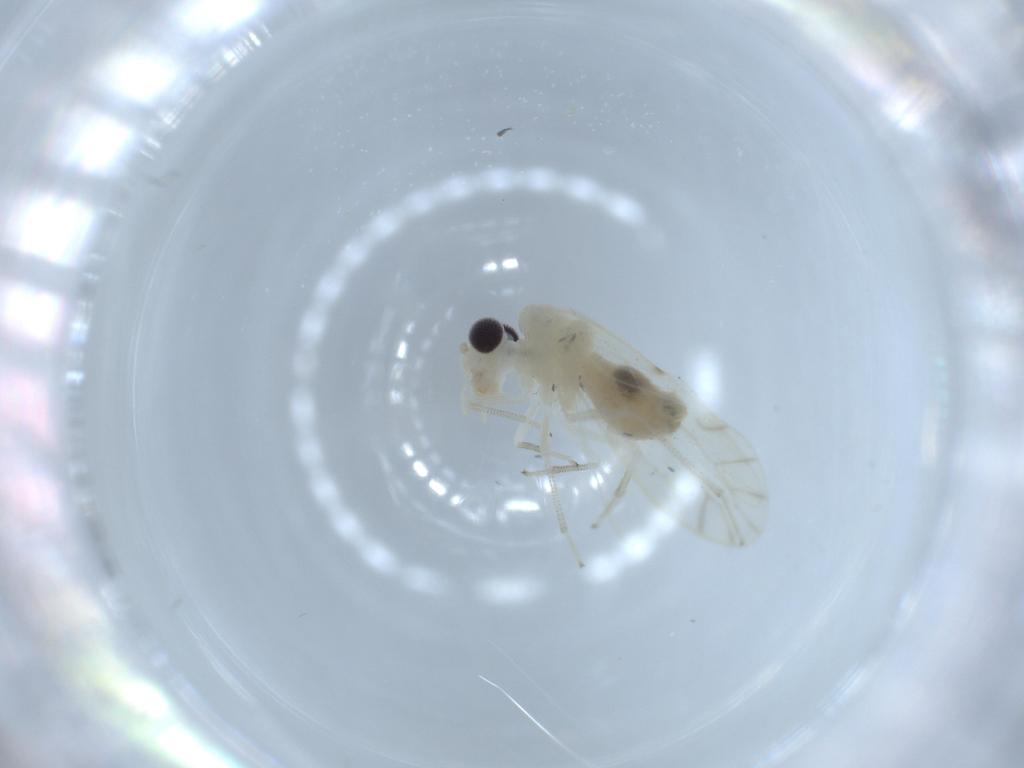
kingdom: Animalia
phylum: Arthropoda
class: Insecta
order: Psocodea
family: Caeciliusidae
